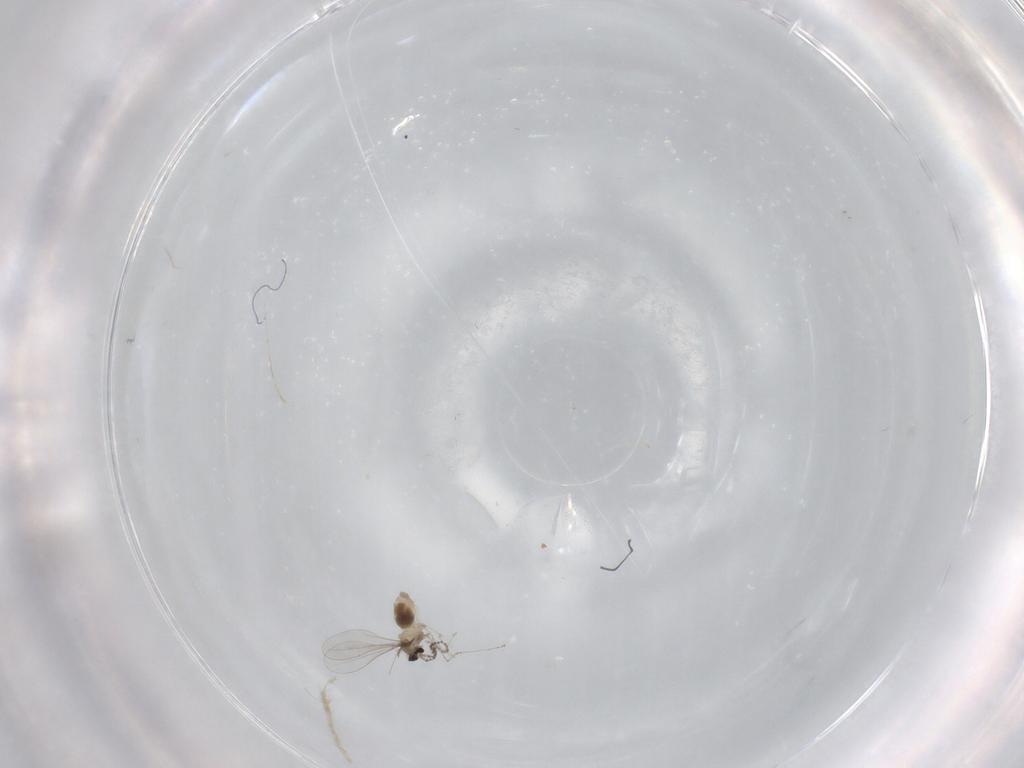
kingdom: Animalia
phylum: Arthropoda
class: Insecta
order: Diptera
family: Cecidomyiidae
